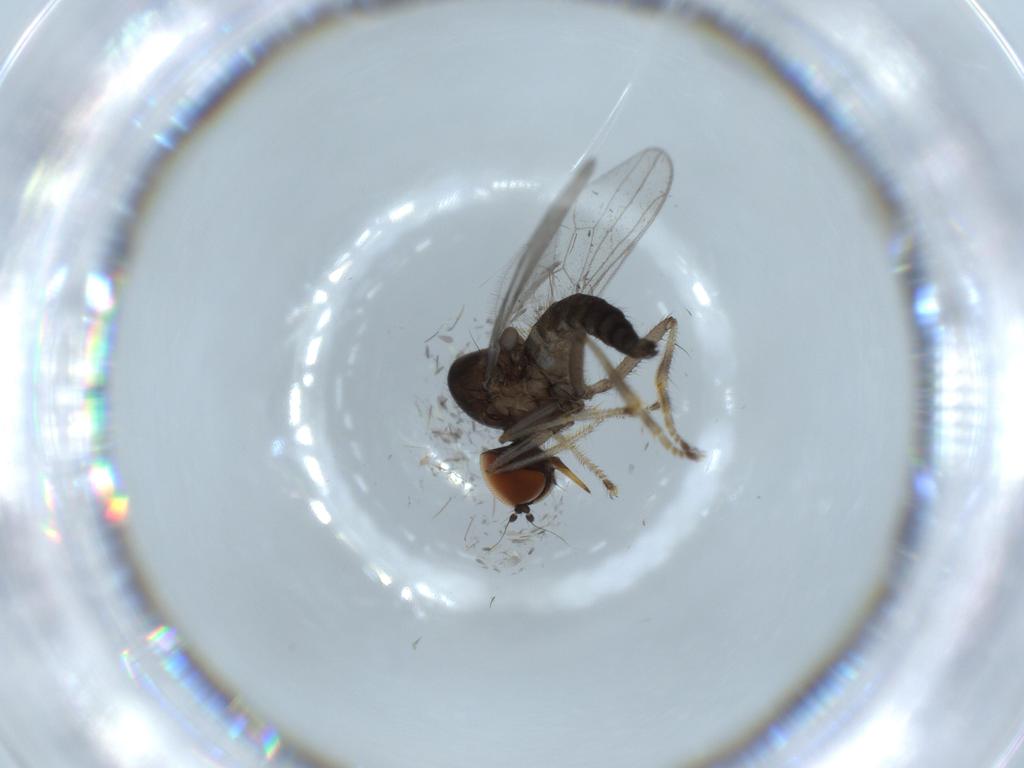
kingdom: Animalia
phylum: Arthropoda
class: Insecta
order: Diptera
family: Hybotidae
